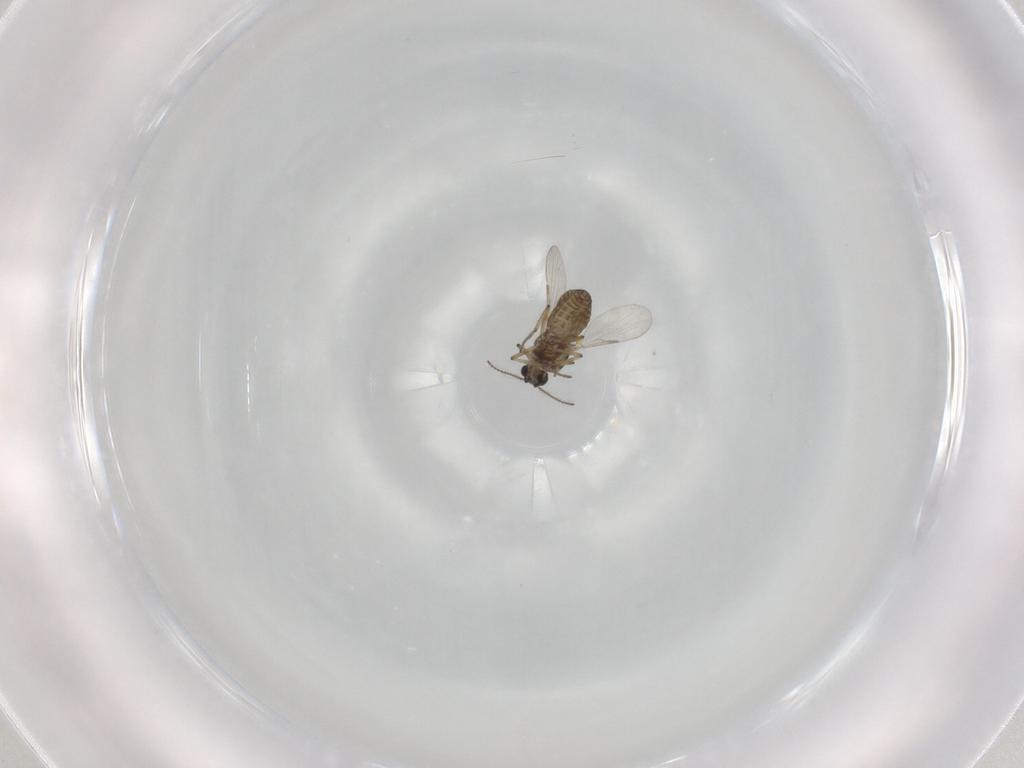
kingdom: Animalia
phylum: Arthropoda
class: Insecta
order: Diptera
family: Ceratopogonidae
